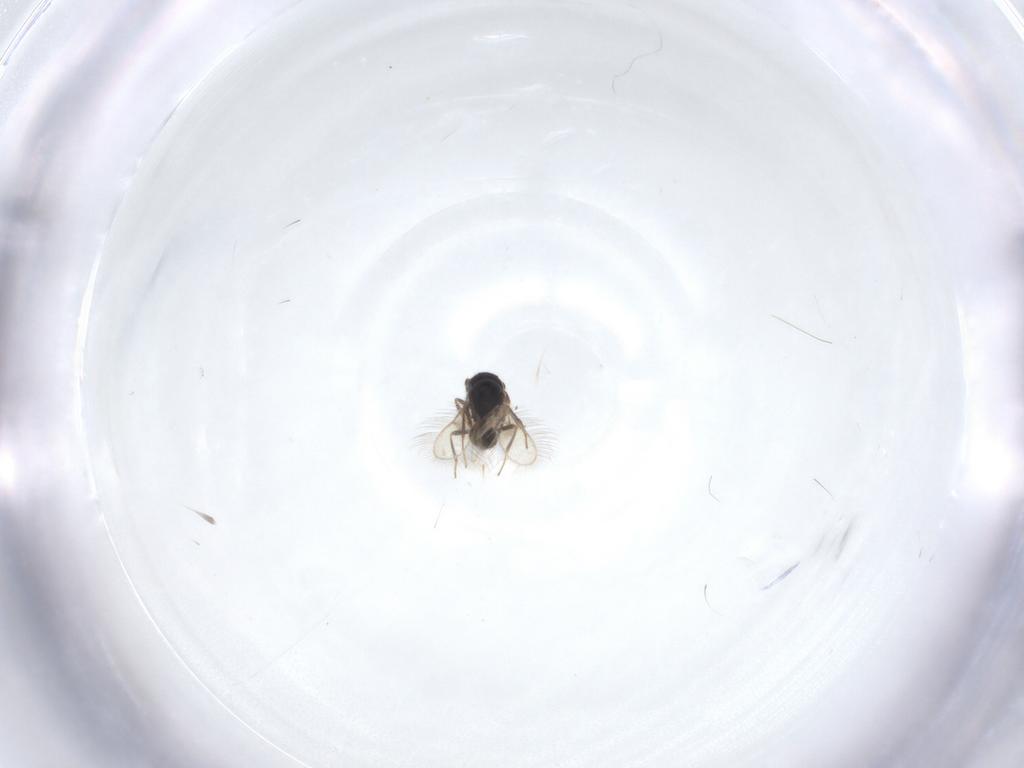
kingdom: Animalia
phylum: Arthropoda
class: Insecta
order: Hymenoptera
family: Scelionidae
